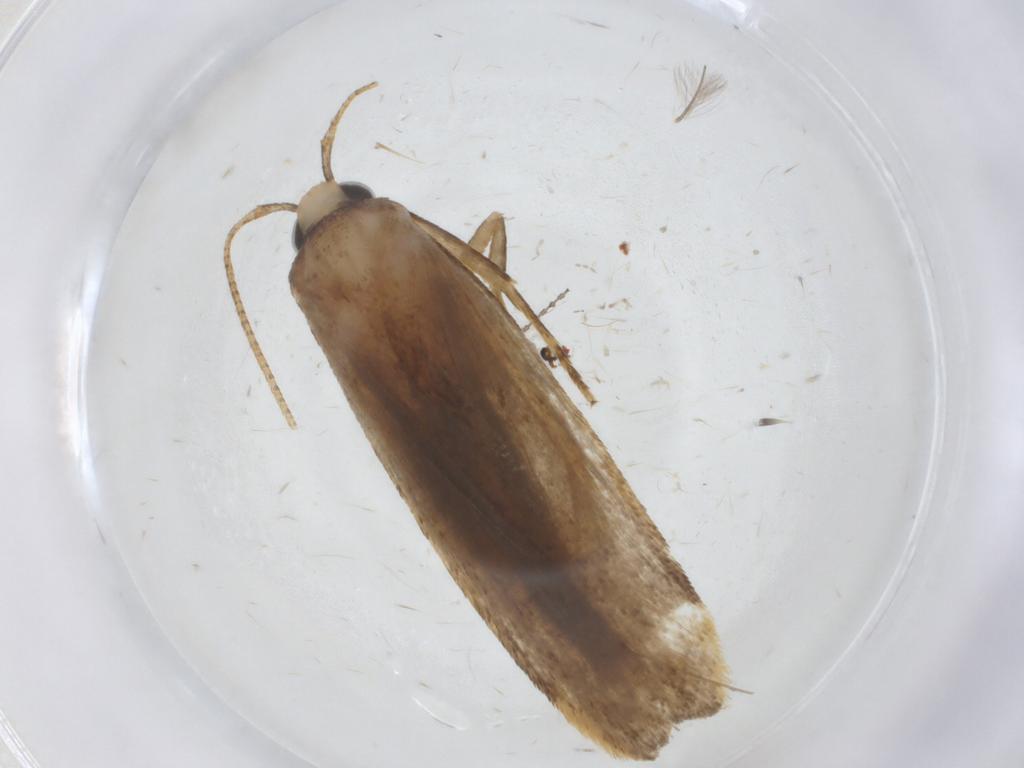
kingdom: Animalia
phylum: Arthropoda
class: Insecta
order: Lepidoptera
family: Autostichidae
